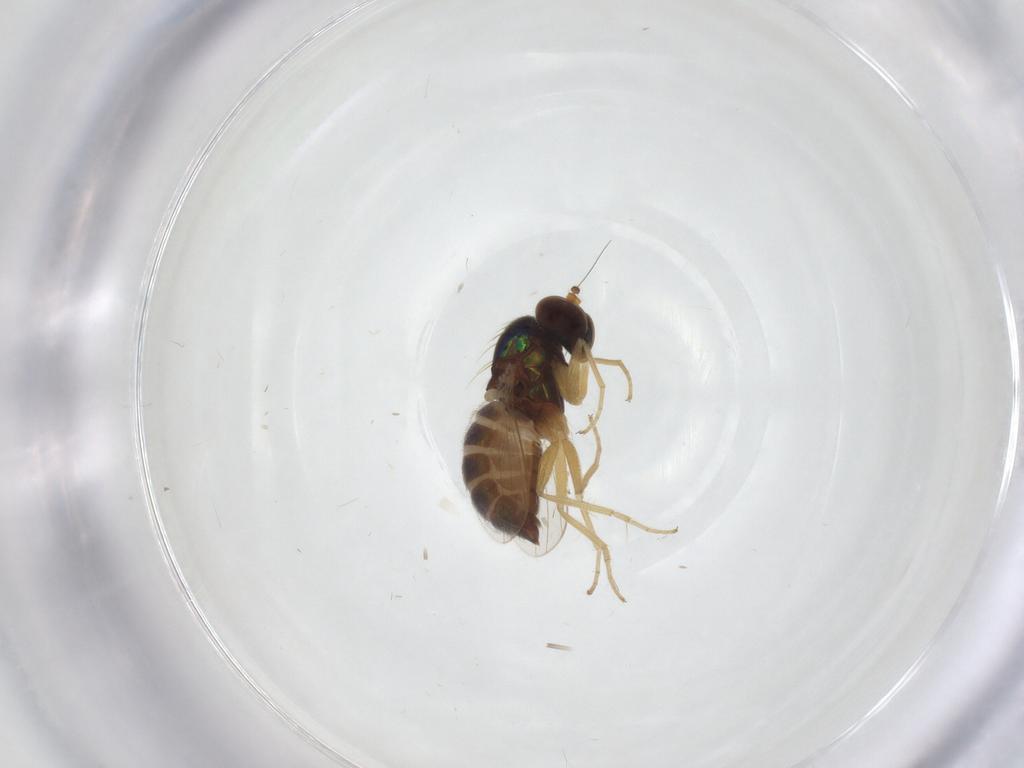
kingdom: Animalia
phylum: Arthropoda
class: Insecta
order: Diptera
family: Dolichopodidae
